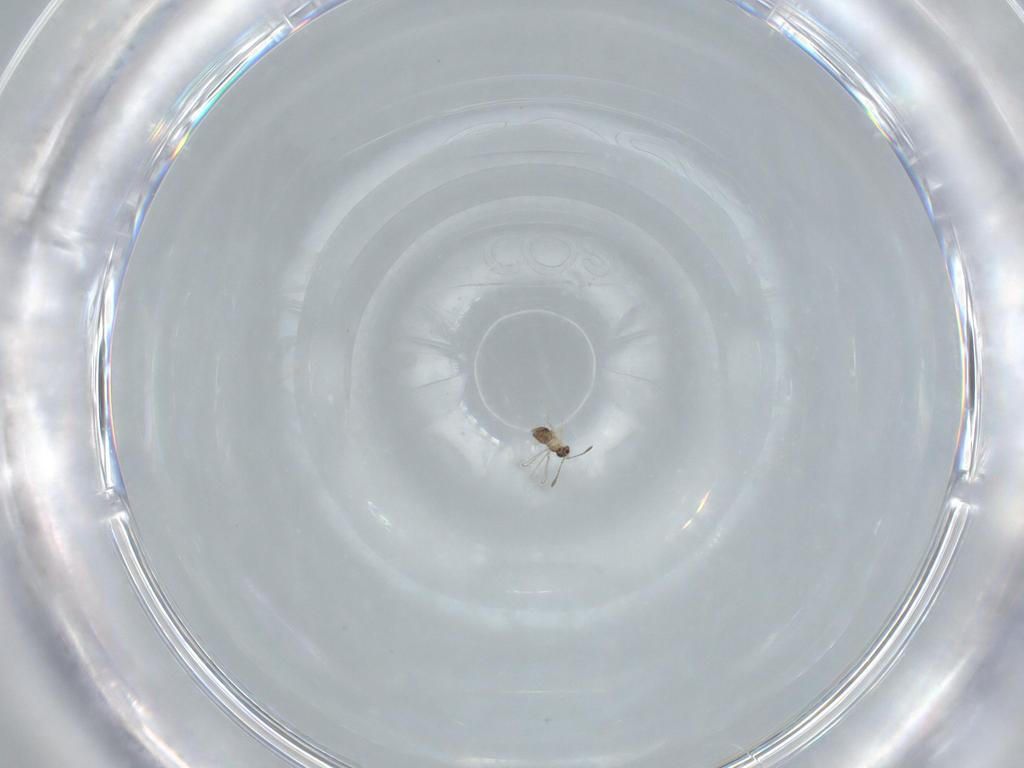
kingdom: Animalia
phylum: Arthropoda
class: Insecta
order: Hymenoptera
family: Mymaridae
